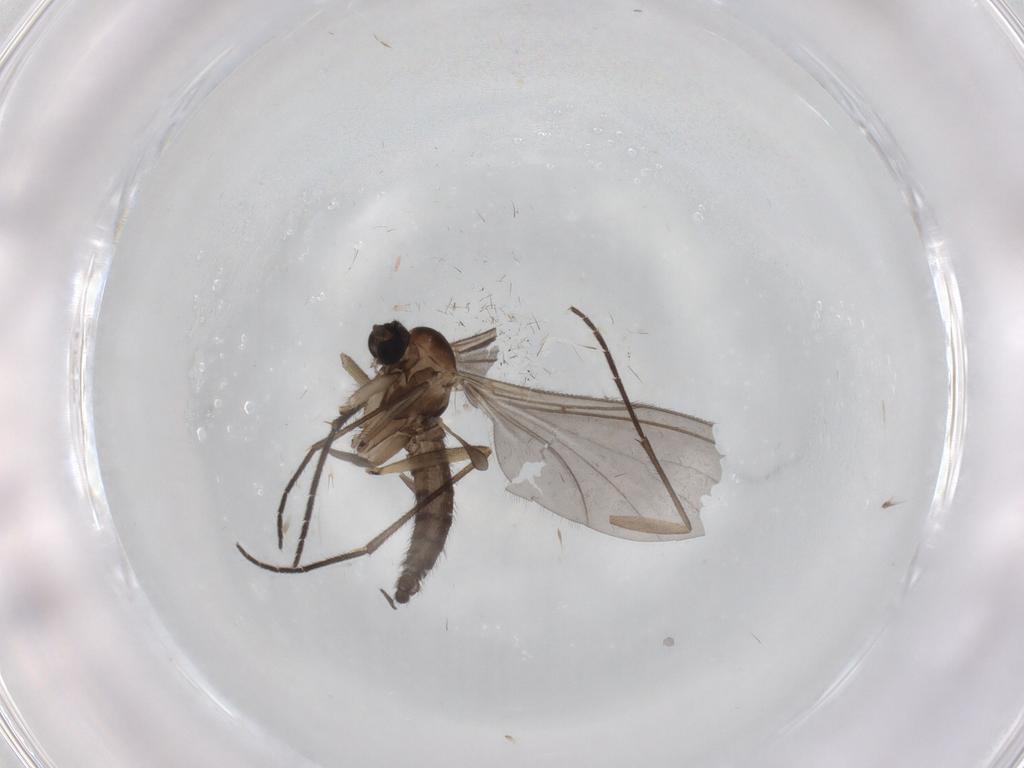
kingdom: Animalia
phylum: Arthropoda
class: Insecta
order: Diptera
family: Sciaridae
